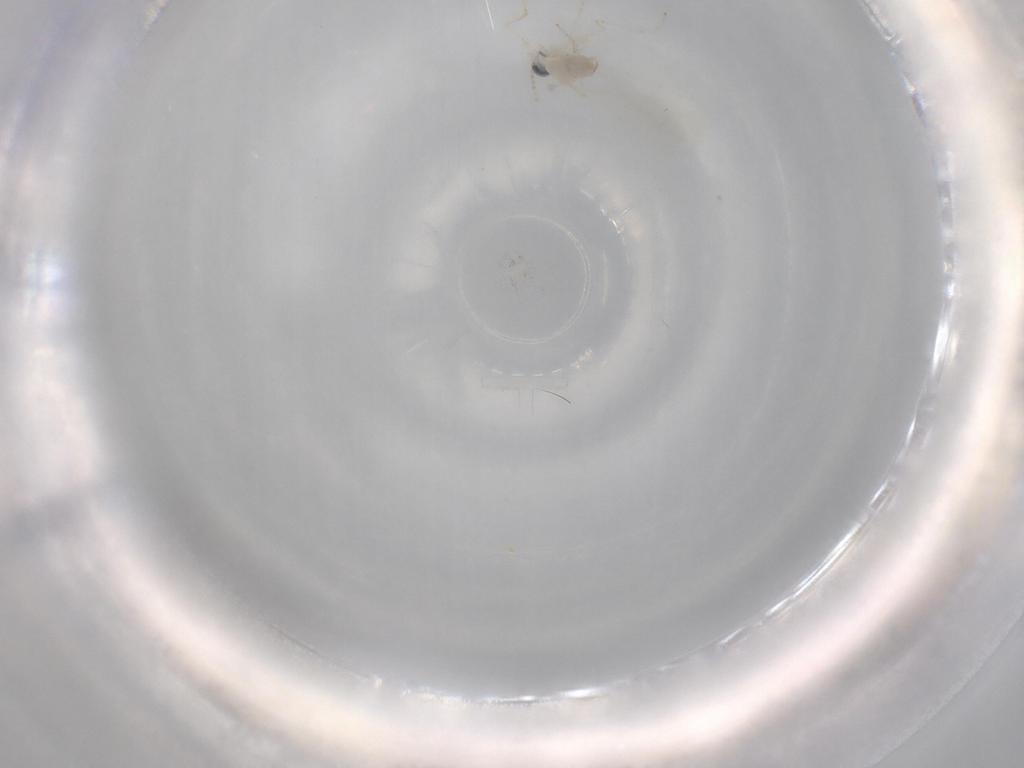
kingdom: Animalia
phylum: Arthropoda
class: Insecta
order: Diptera
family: Cecidomyiidae
